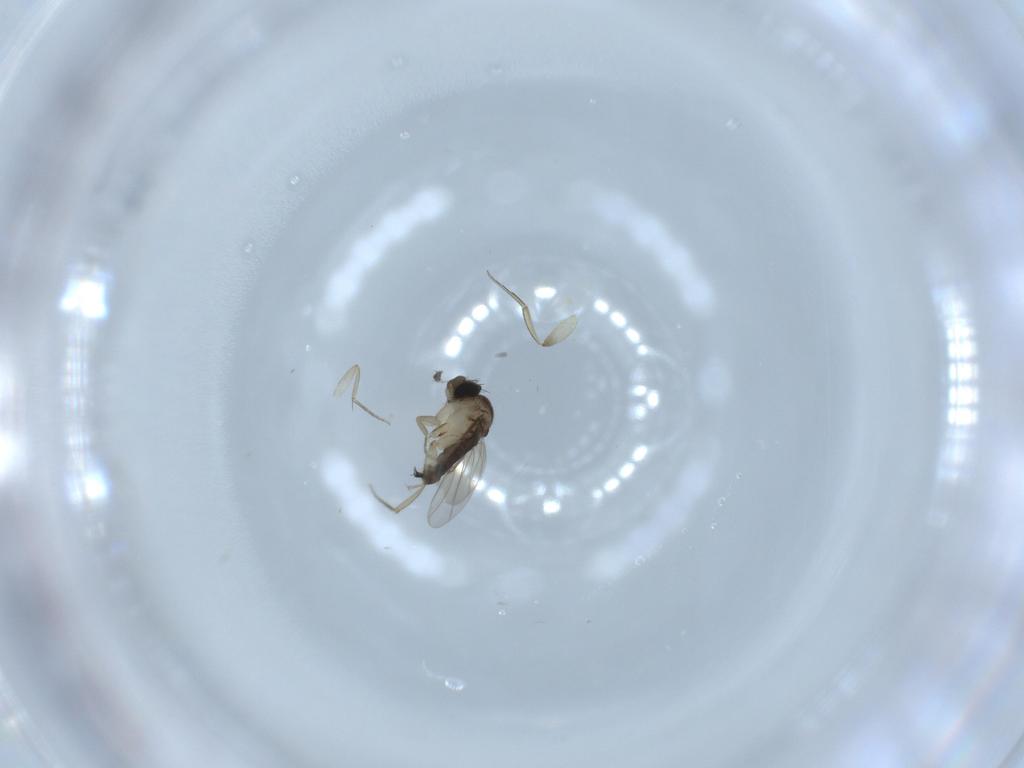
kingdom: Animalia
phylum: Arthropoda
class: Insecta
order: Diptera
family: Phoridae
